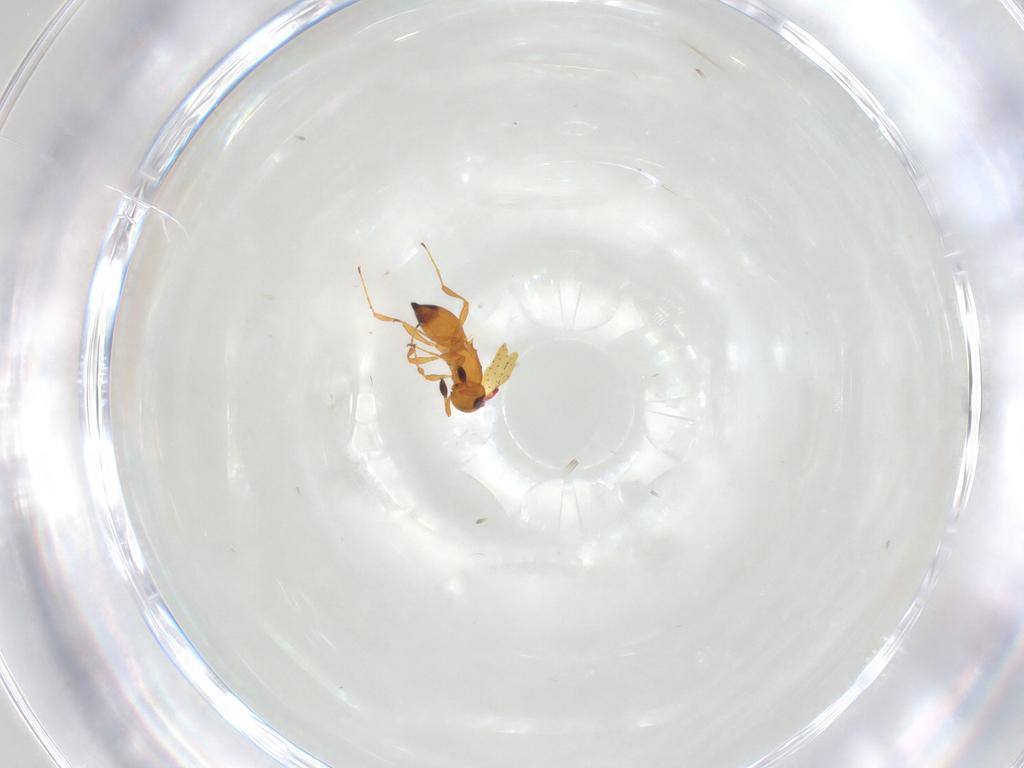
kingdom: Animalia
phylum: Arthropoda
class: Insecta
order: Hymenoptera
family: Platygastridae
